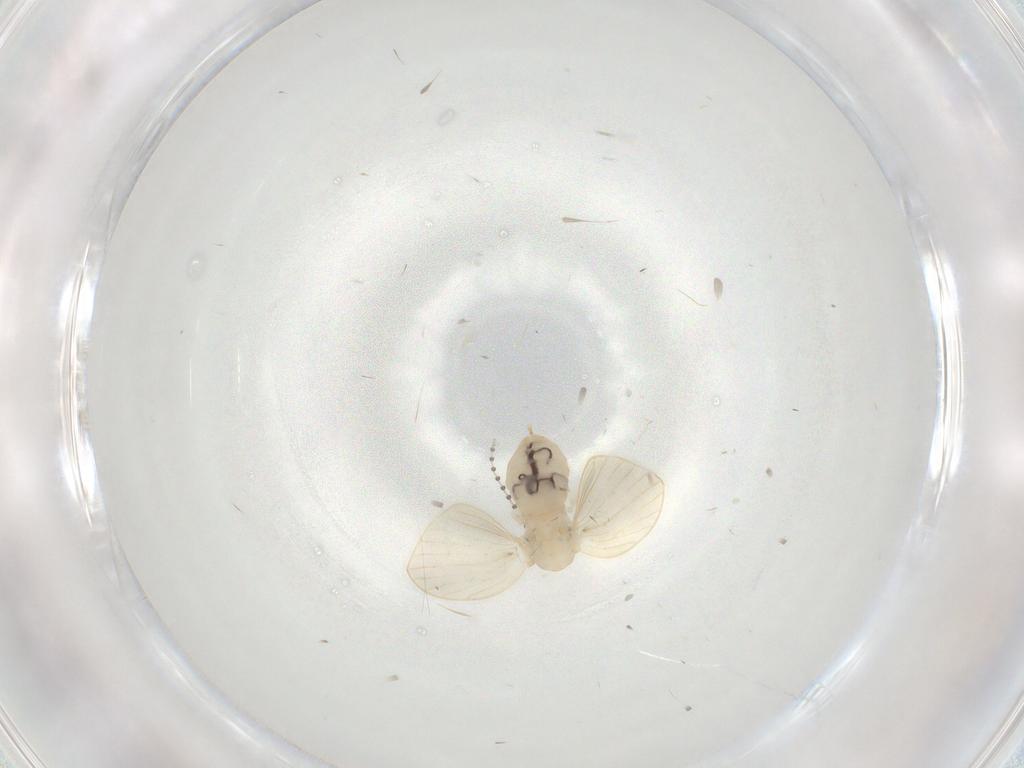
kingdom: Animalia
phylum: Arthropoda
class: Insecta
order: Diptera
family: Psychodidae
